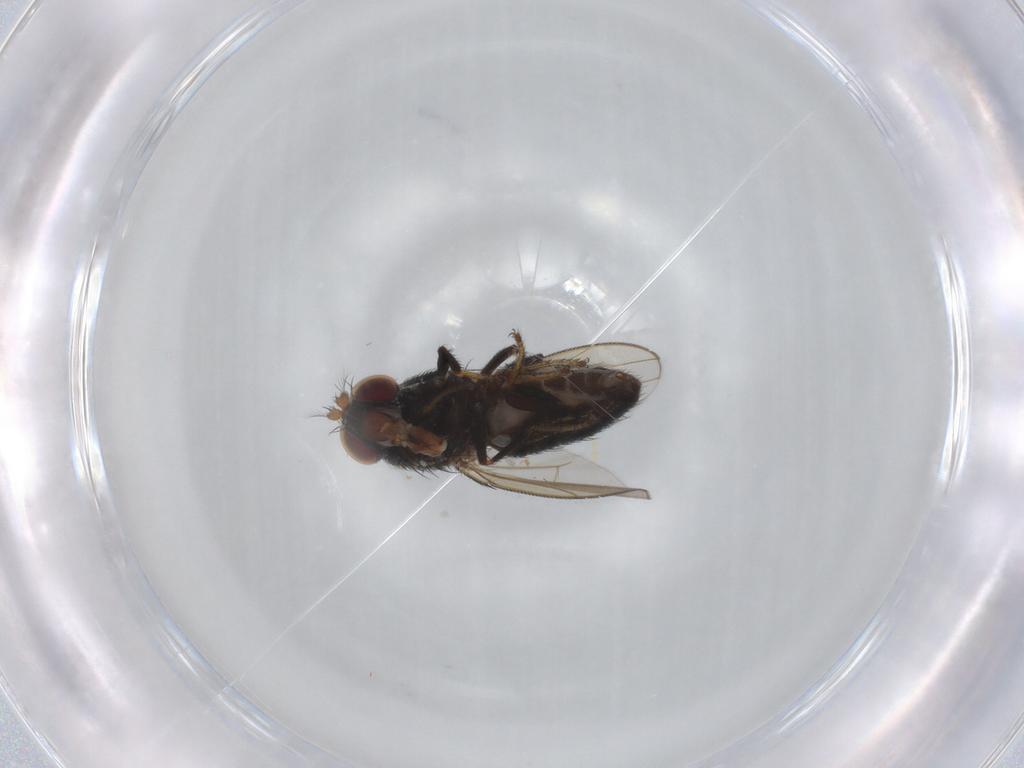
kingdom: Animalia
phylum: Arthropoda
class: Insecta
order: Diptera
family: Ephydridae
